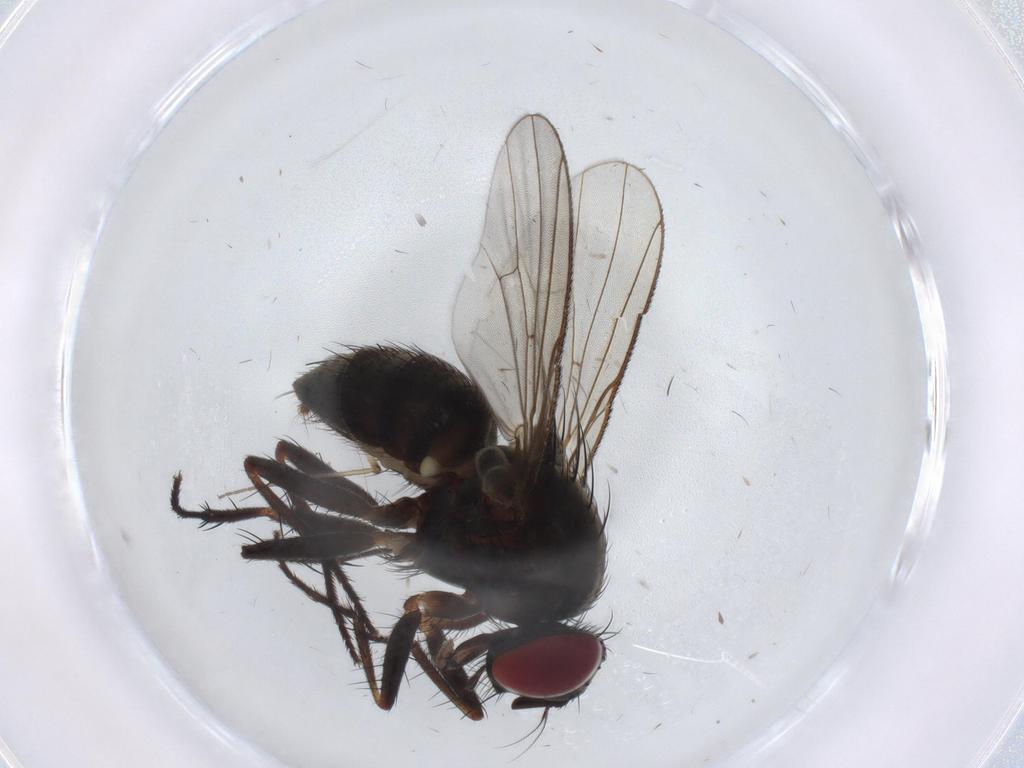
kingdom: Animalia
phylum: Arthropoda
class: Insecta
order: Diptera
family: Muscidae
